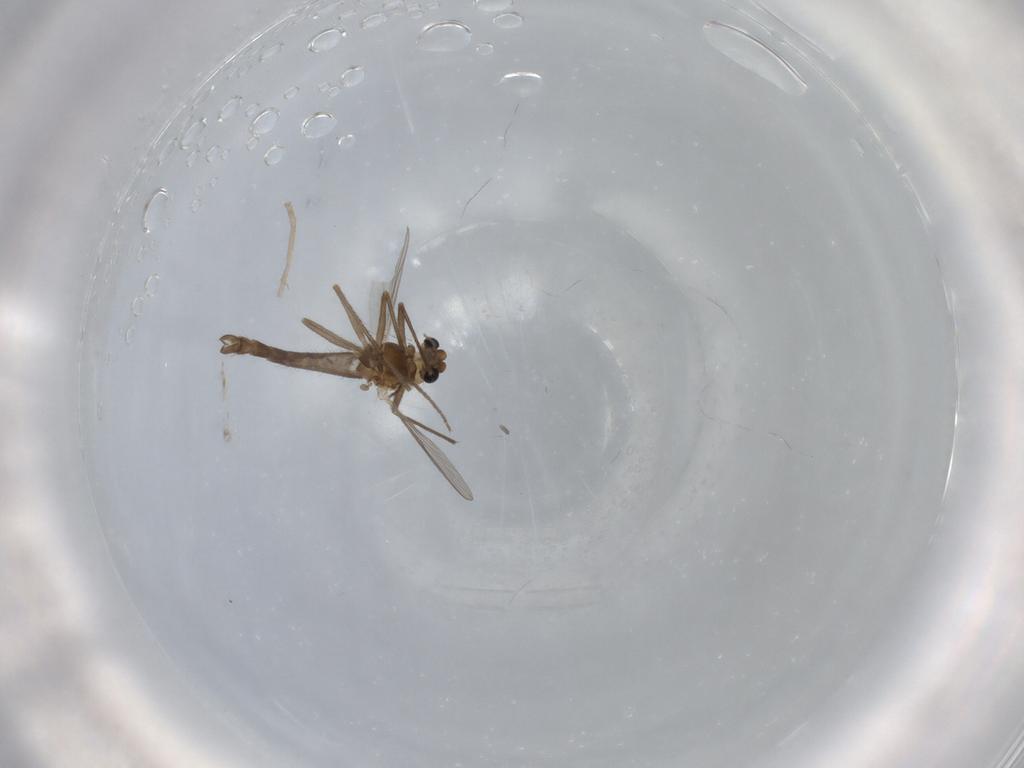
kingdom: Animalia
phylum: Arthropoda
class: Insecta
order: Diptera
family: Chironomidae
